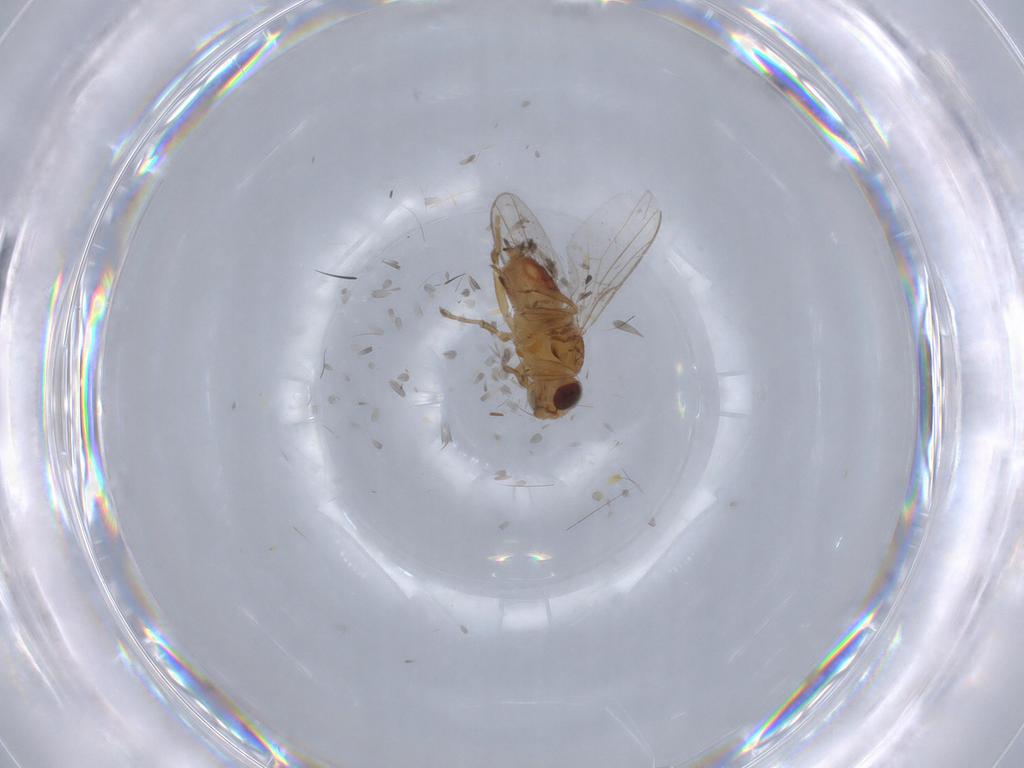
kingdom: Animalia
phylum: Arthropoda
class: Insecta
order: Diptera
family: Chloropidae
